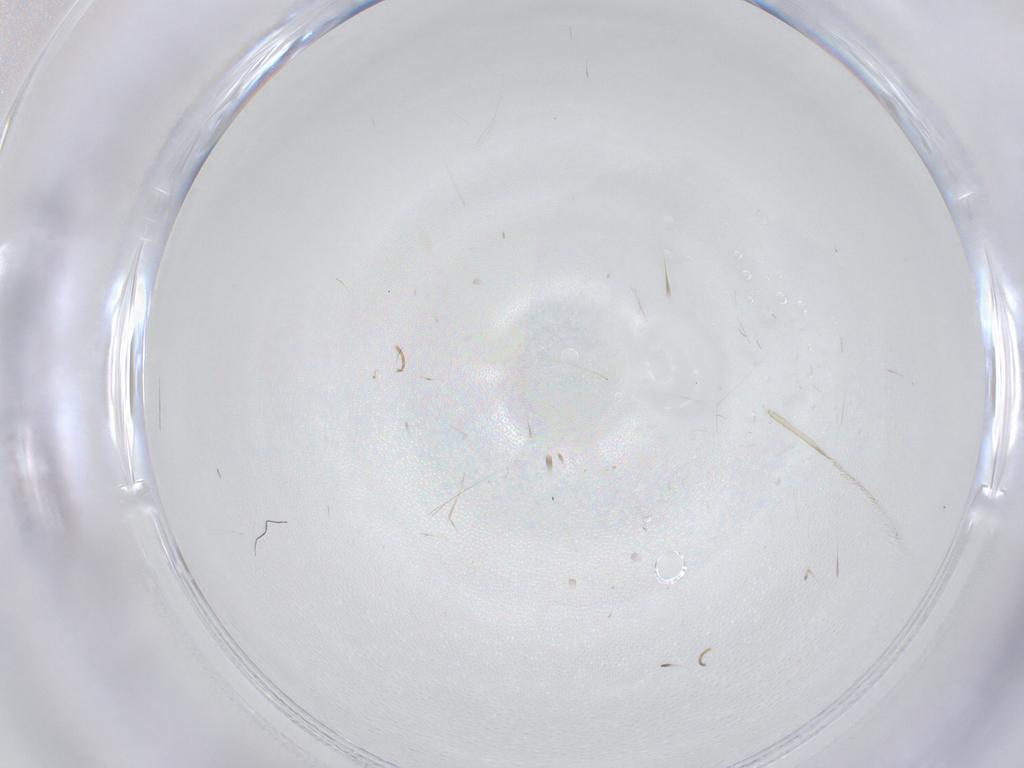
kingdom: Animalia
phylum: Arthropoda
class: Insecta
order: Diptera
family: Hybotidae
